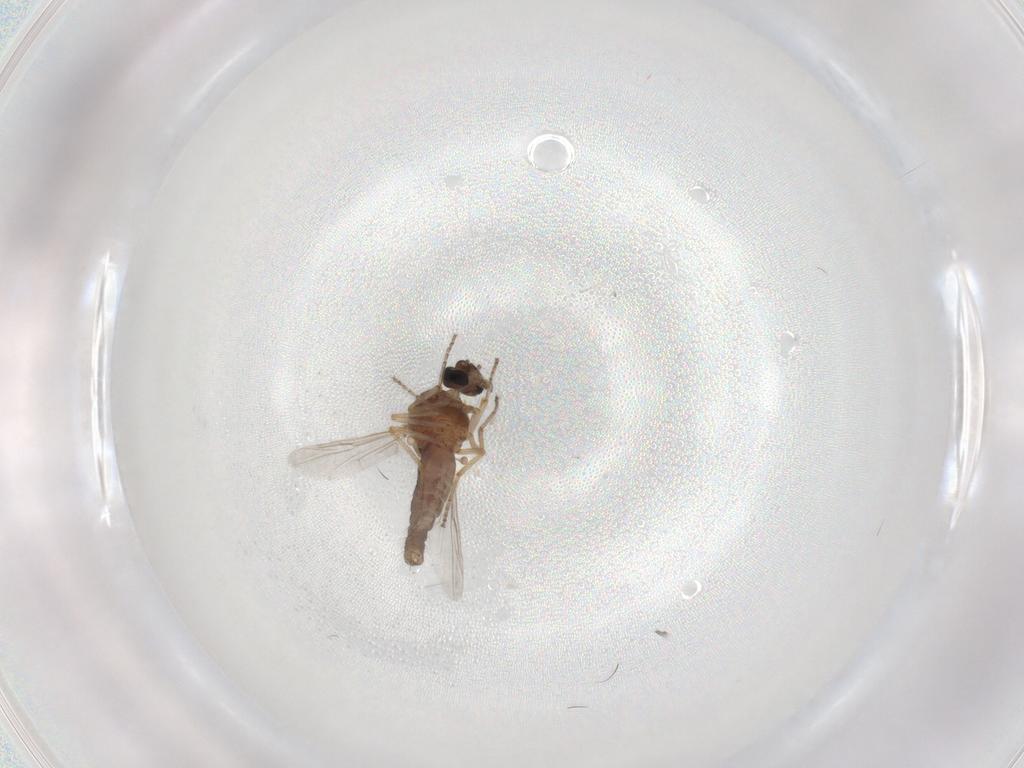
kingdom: Animalia
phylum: Arthropoda
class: Insecta
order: Diptera
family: Ceratopogonidae
